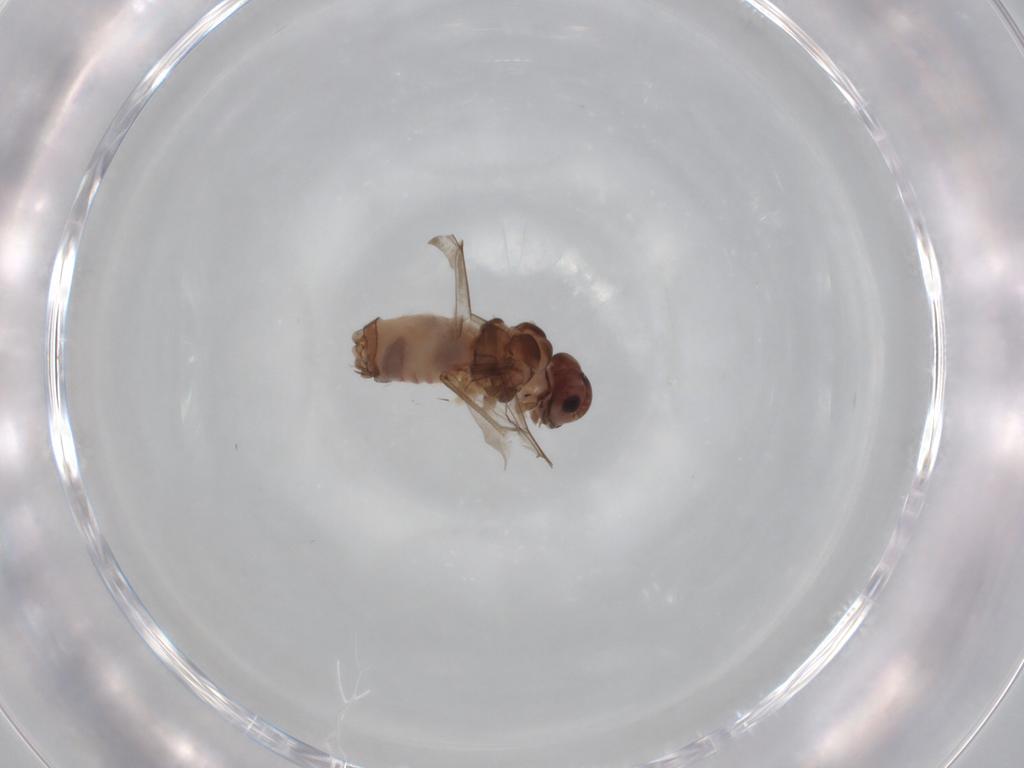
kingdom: Animalia
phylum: Arthropoda
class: Insecta
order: Psocodea
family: Peripsocidae
